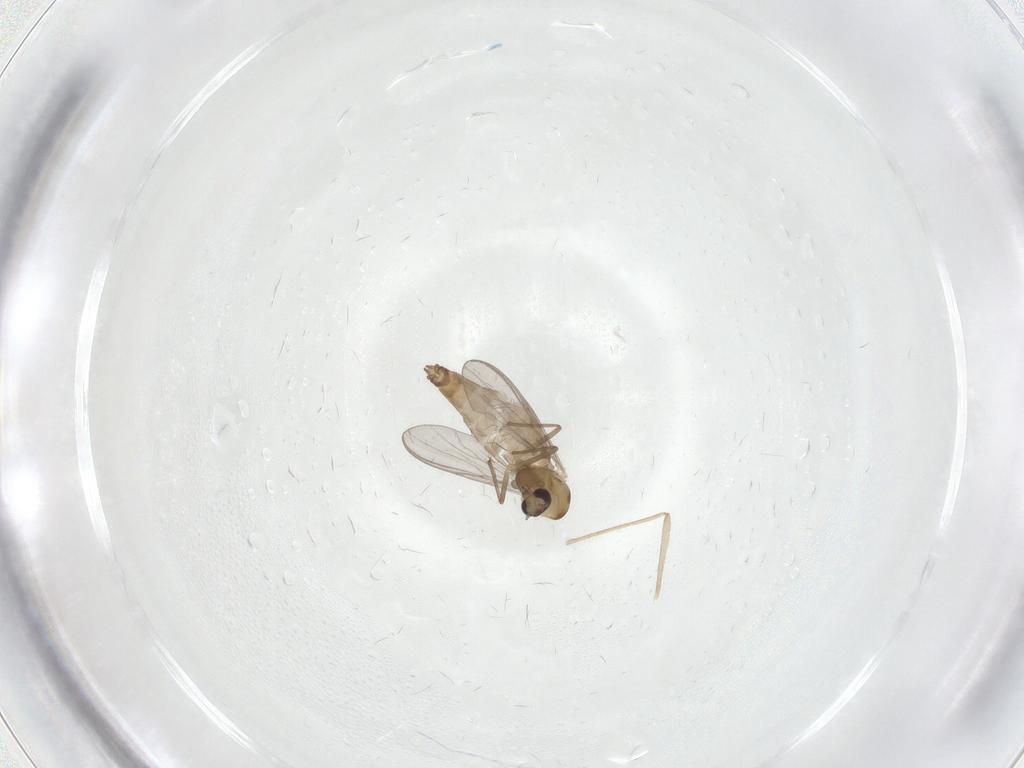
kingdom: Animalia
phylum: Arthropoda
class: Insecta
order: Diptera
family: Chironomidae
